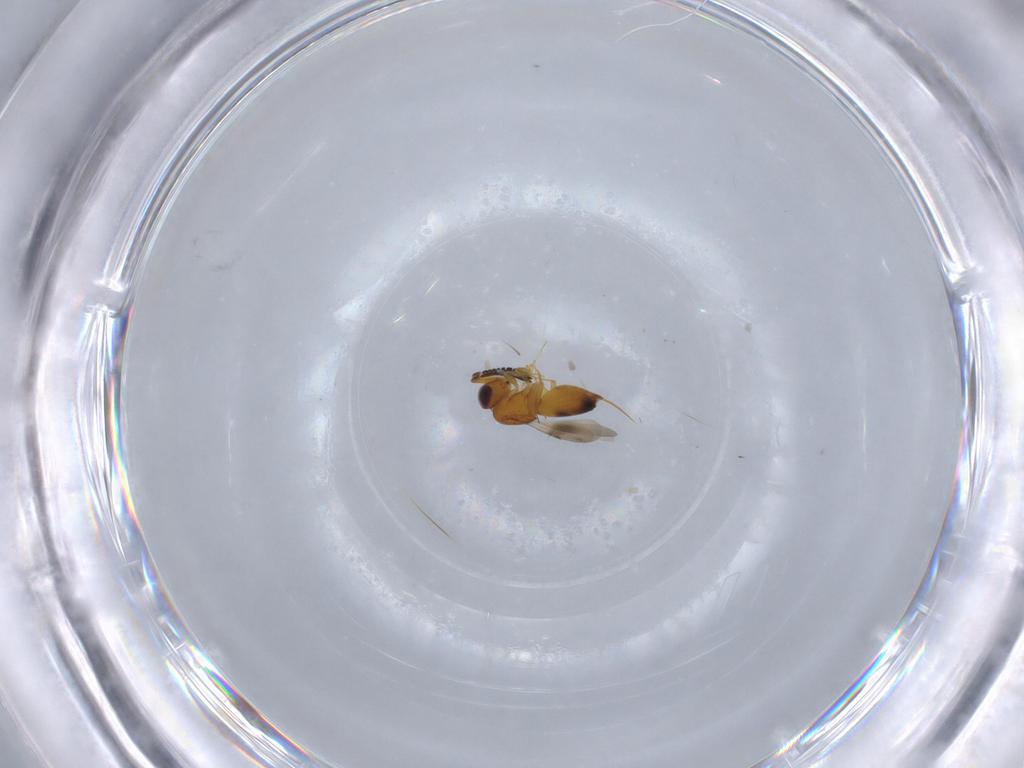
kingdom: Animalia
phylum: Arthropoda
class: Insecta
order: Hymenoptera
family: Ceraphronidae
